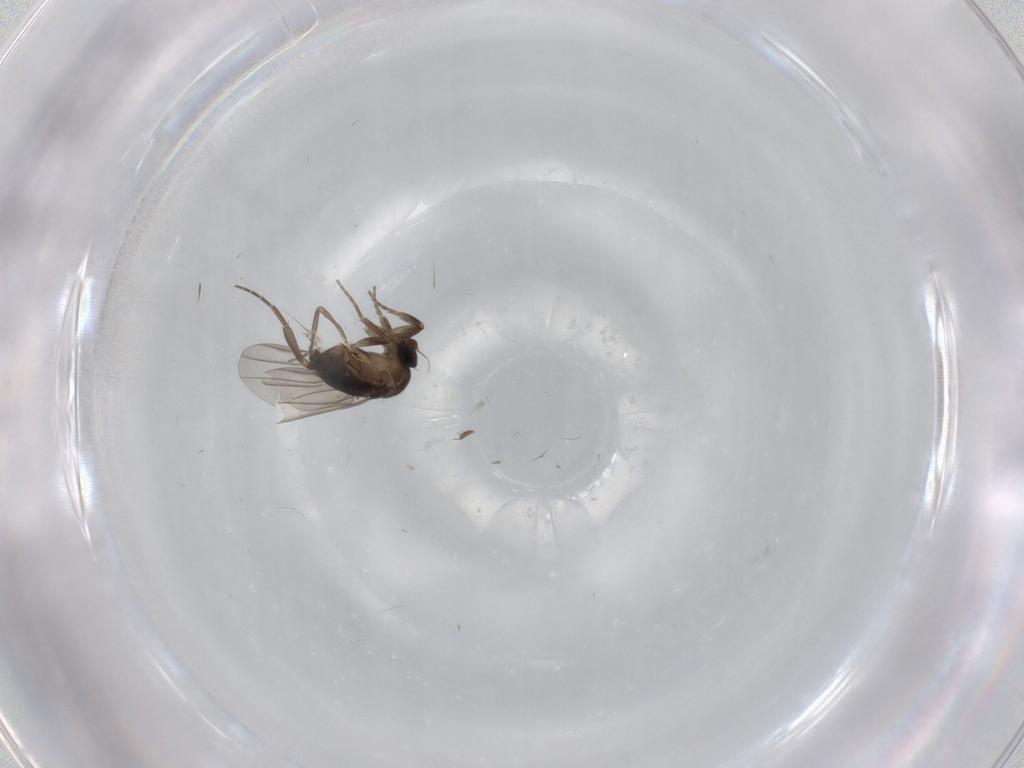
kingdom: Animalia
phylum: Arthropoda
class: Insecta
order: Diptera
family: Cecidomyiidae
